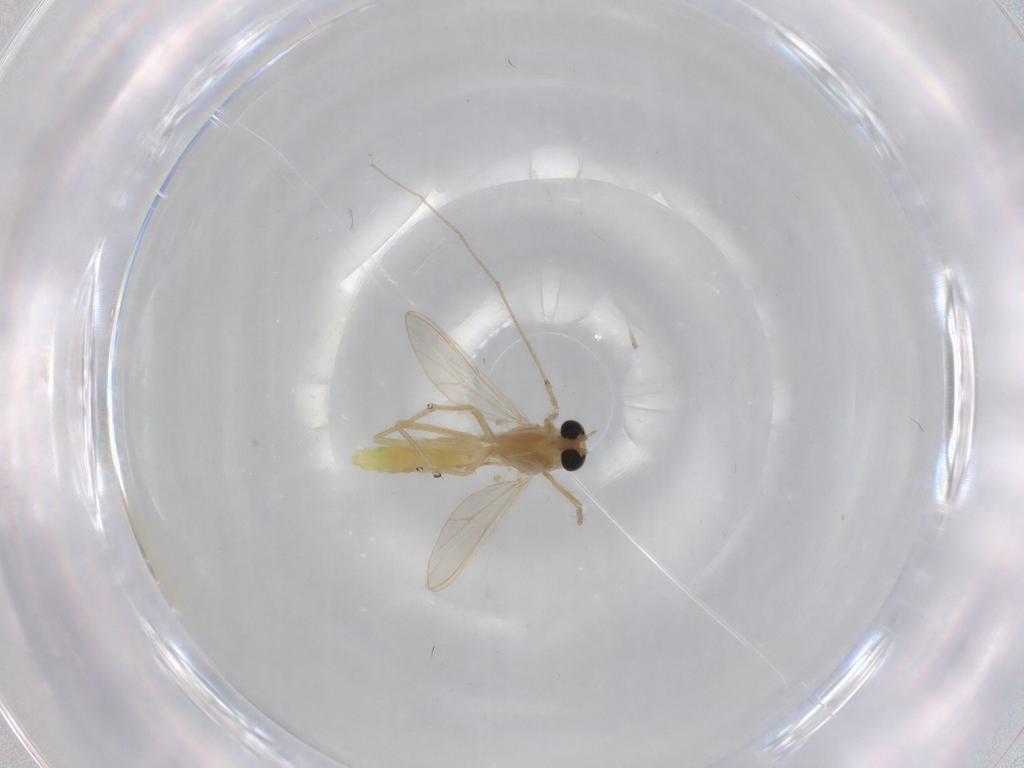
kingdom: Animalia
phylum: Arthropoda
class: Insecta
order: Diptera
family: Chironomidae
